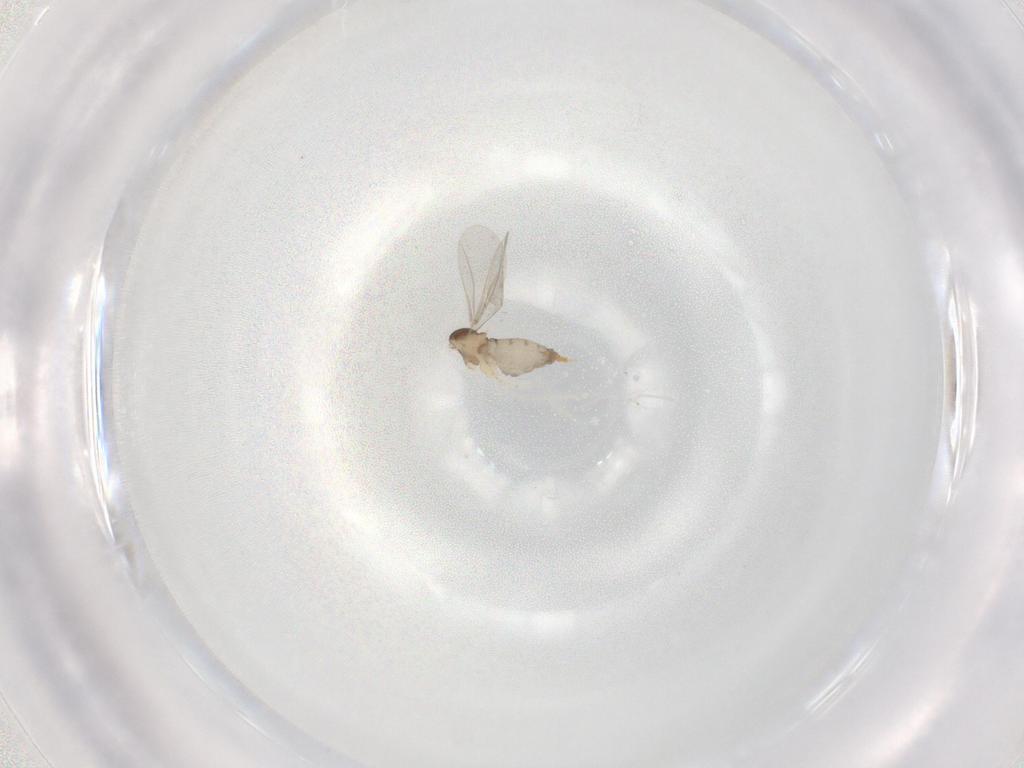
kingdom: Animalia
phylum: Arthropoda
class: Insecta
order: Diptera
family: Cecidomyiidae
